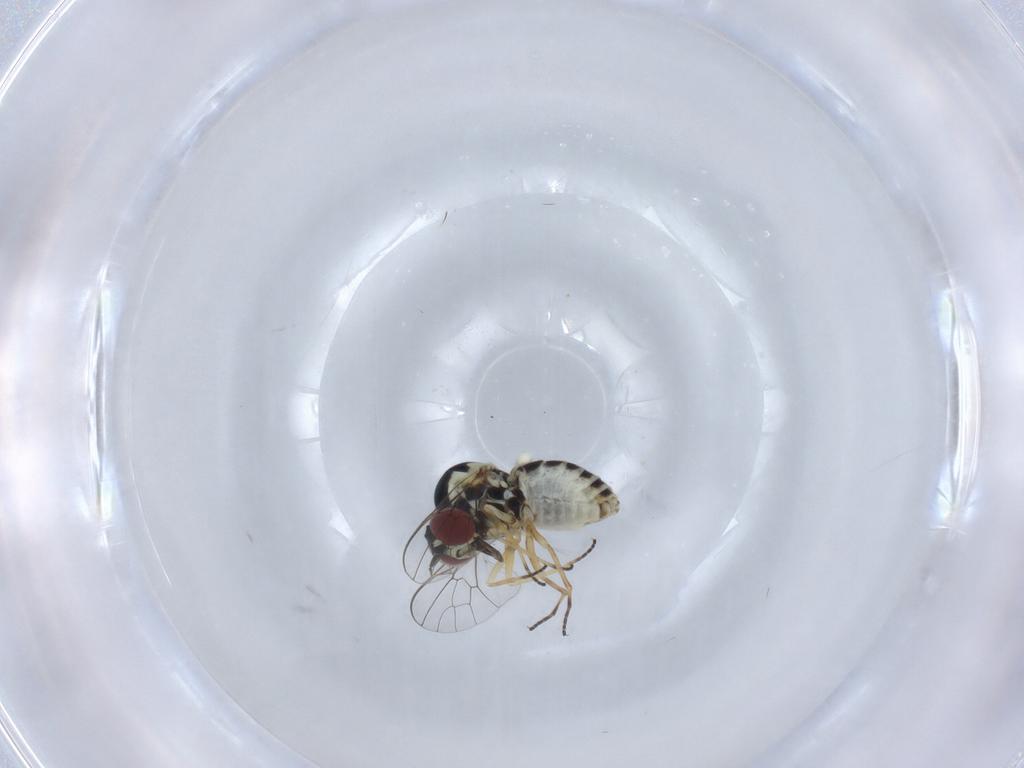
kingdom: Animalia
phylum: Arthropoda
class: Insecta
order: Diptera
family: Bombyliidae
